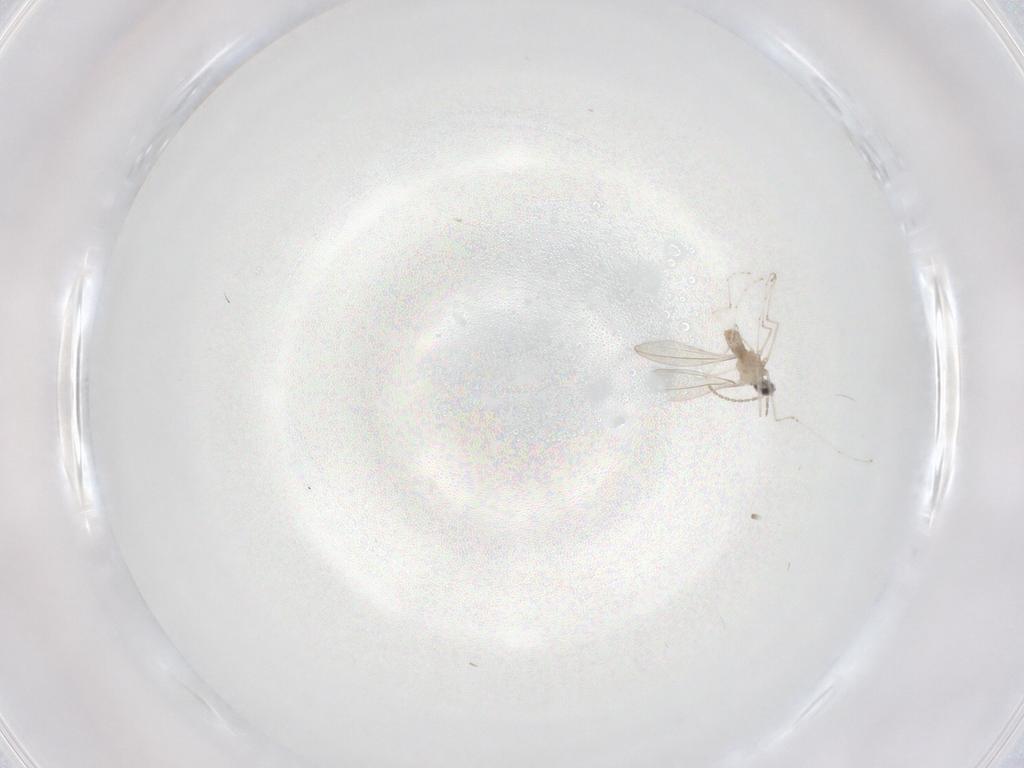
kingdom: Animalia
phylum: Arthropoda
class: Insecta
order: Diptera
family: Cecidomyiidae
